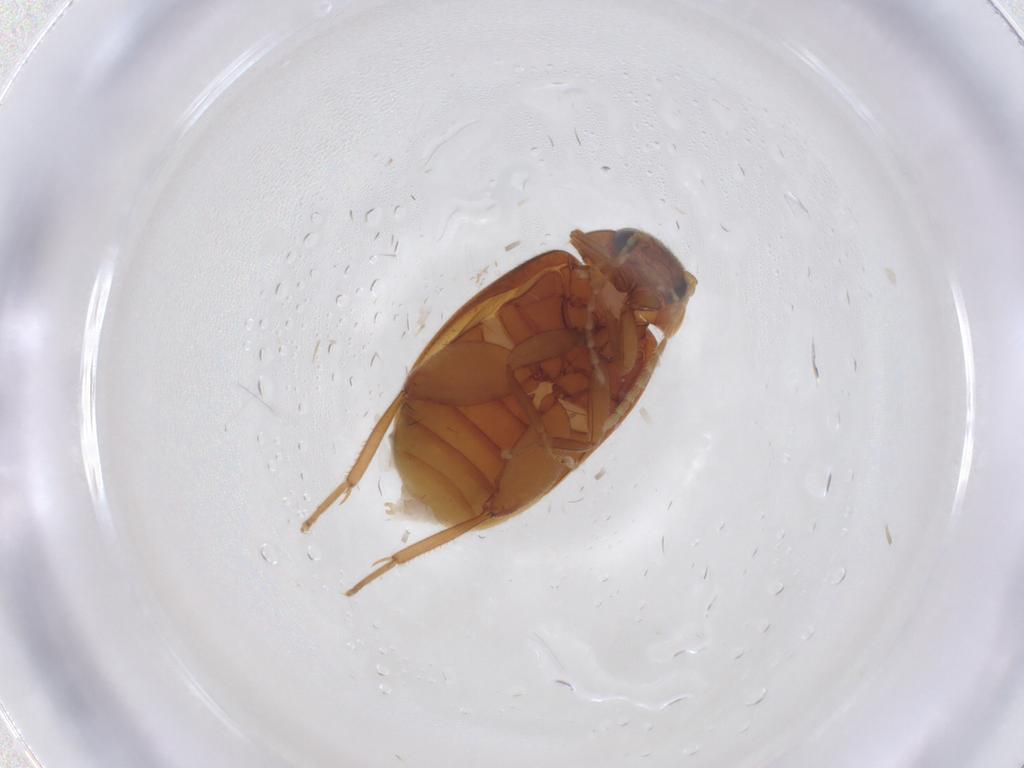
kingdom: Animalia
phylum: Arthropoda
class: Insecta
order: Coleoptera
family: Scirtidae
